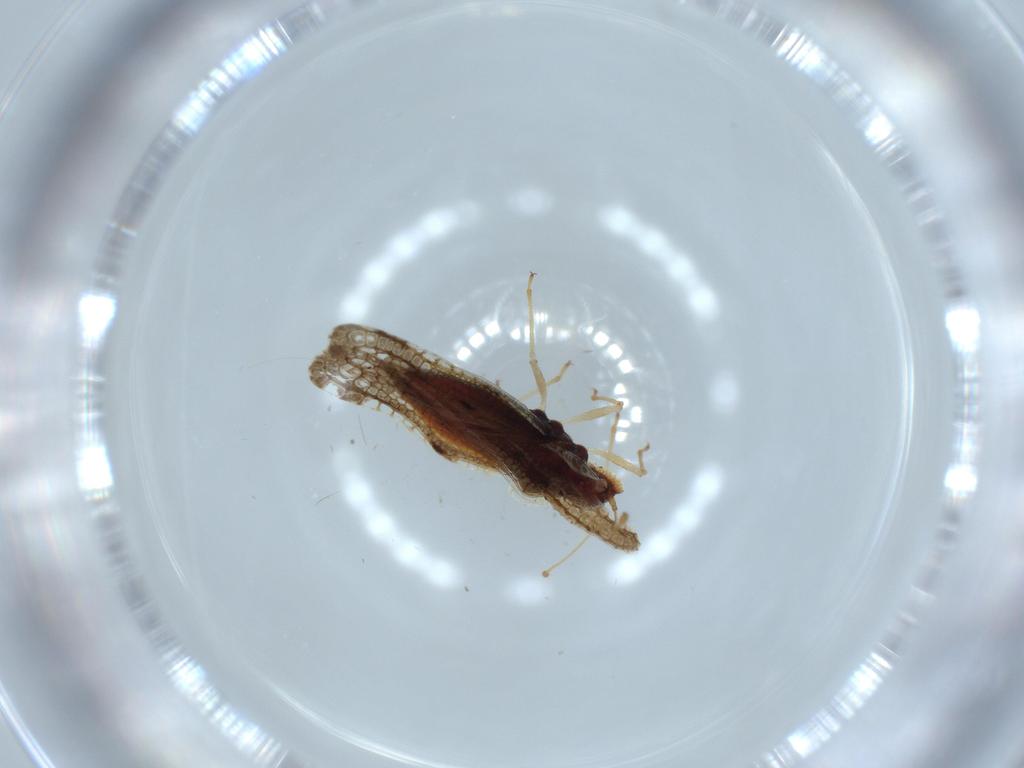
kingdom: Animalia
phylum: Arthropoda
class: Insecta
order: Hemiptera
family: Tingidae
